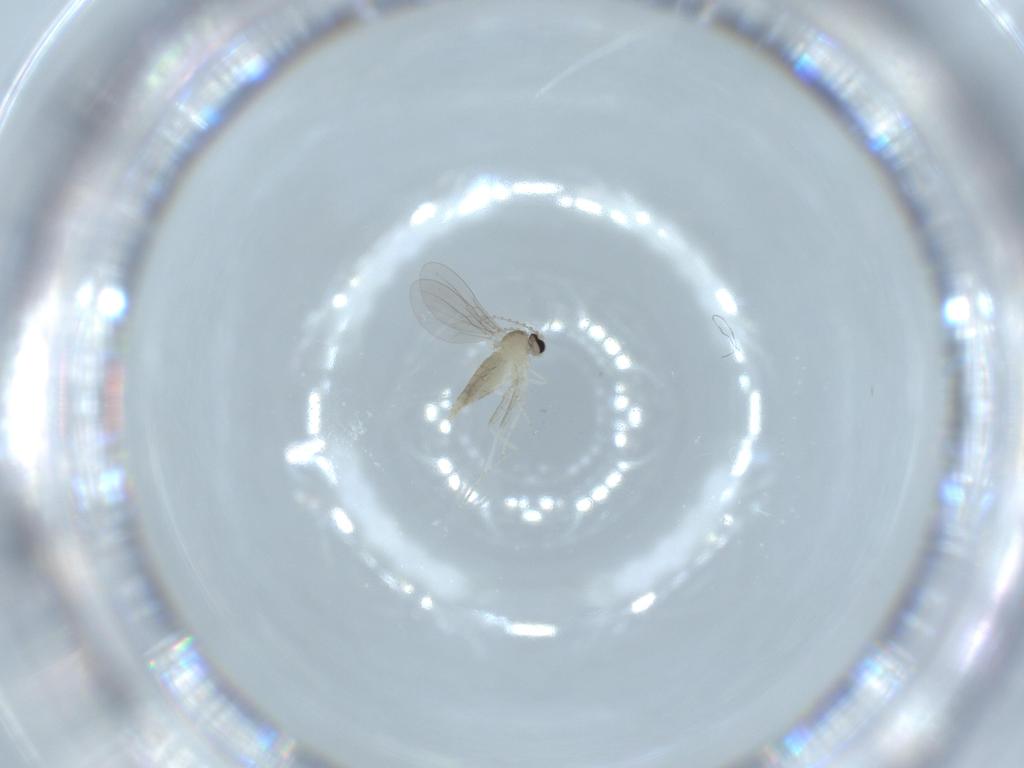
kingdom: Animalia
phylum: Arthropoda
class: Insecta
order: Diptera
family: Cecidomyiidae
